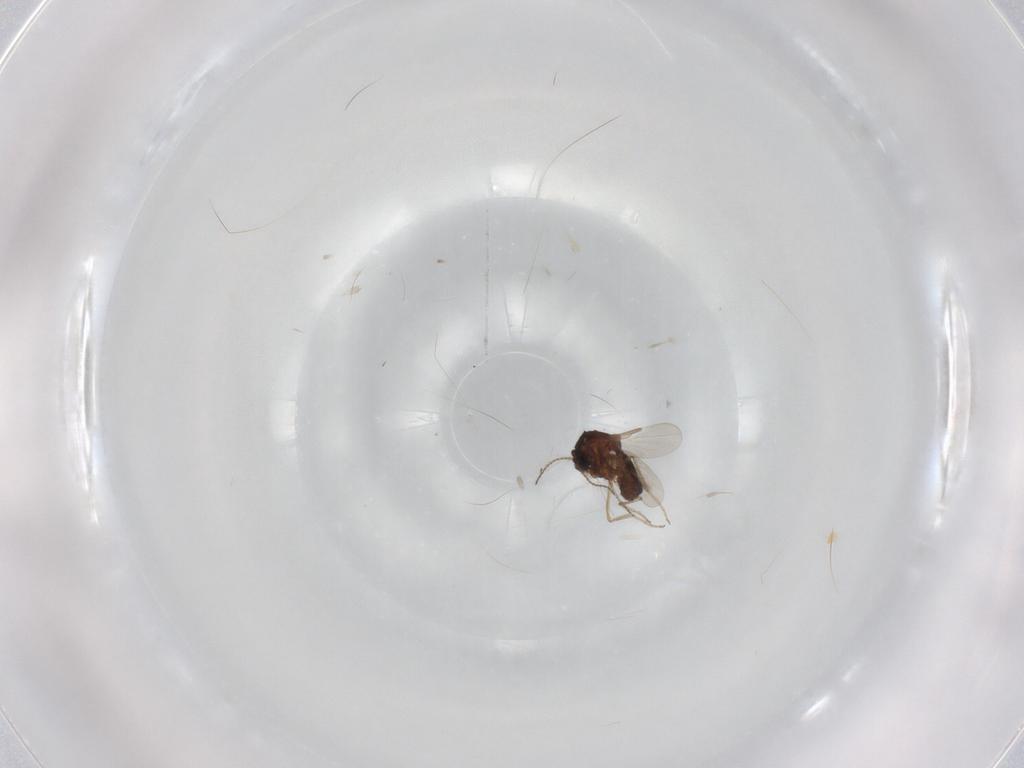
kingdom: Animalia
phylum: Arthropoda
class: Insecta
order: Diptera
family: Ceratopogonidae
